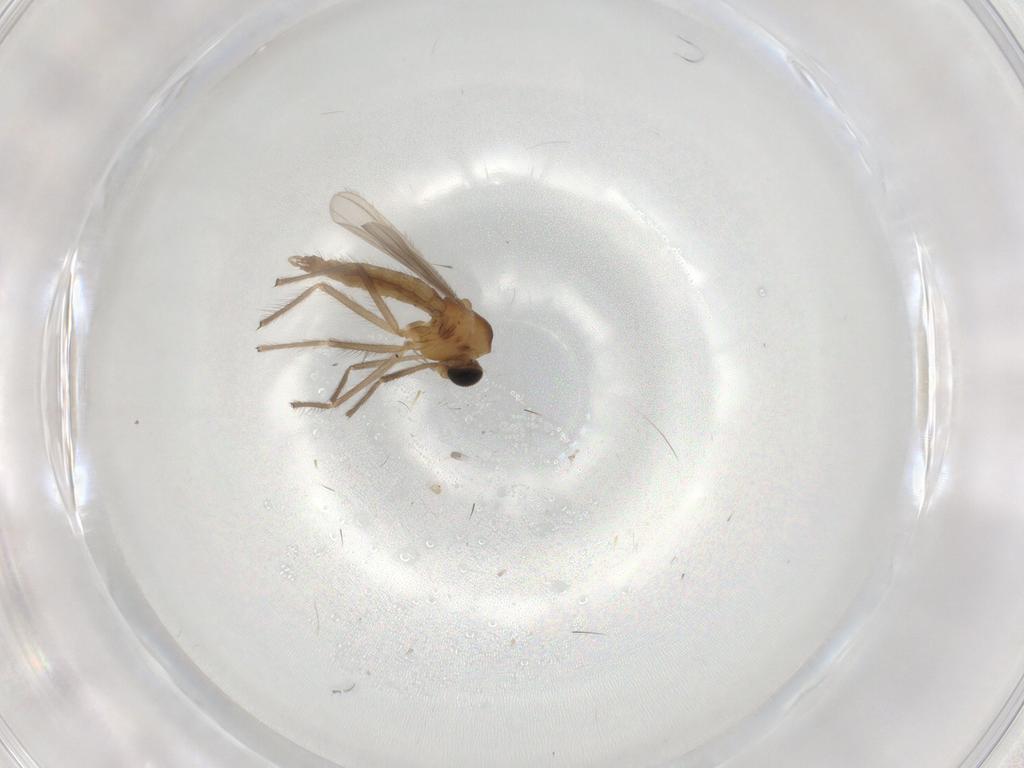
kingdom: Animalia
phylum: Arthropoda
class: Insecta
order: Diptera
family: Chironomidae
